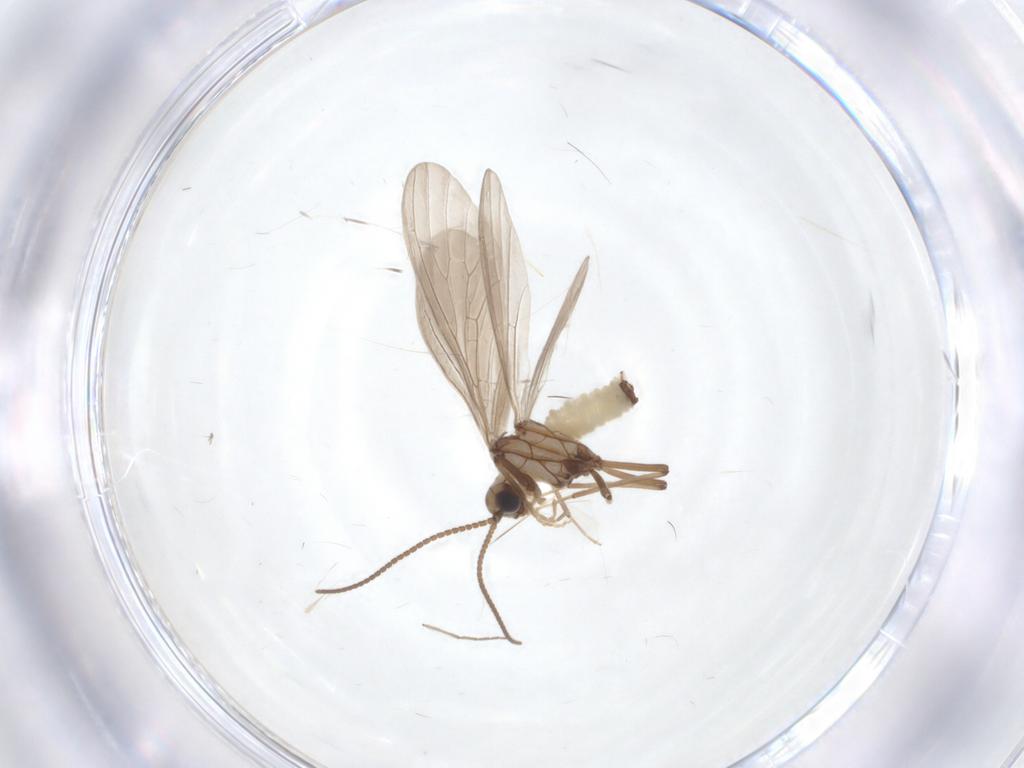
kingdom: Animalia
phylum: Arthropoda
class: Insecta
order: Neuroptera
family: Coniopterygidae
